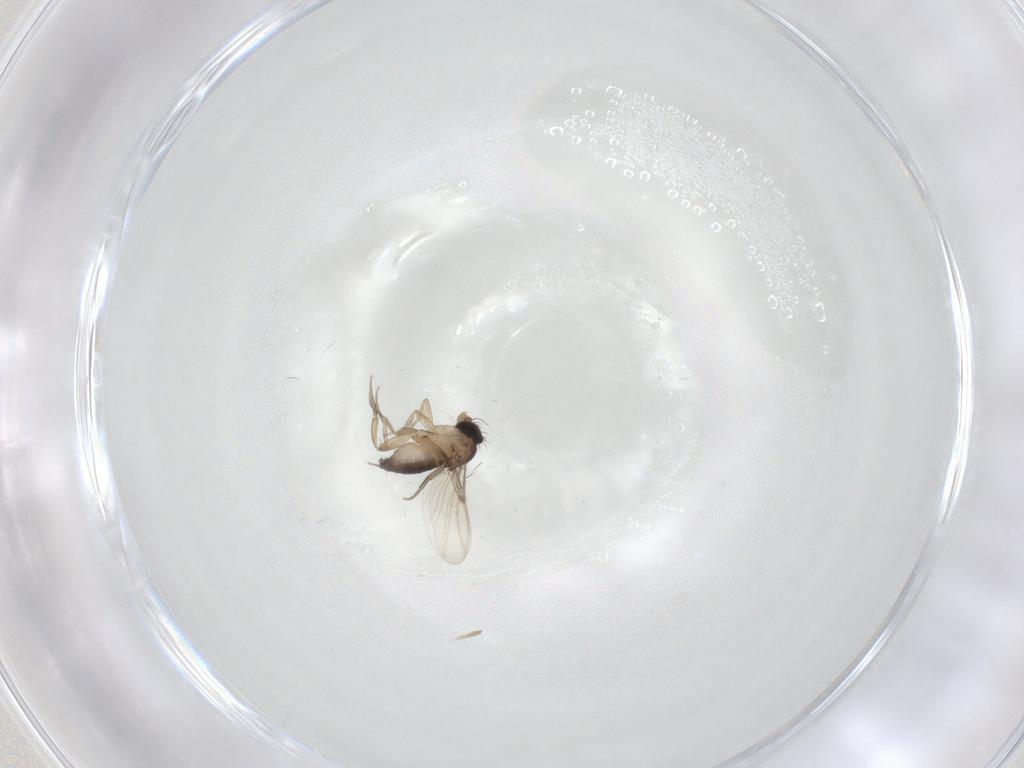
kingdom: Animalia
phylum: Arthropoda
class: Insecta
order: Diptera
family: Phoridae
